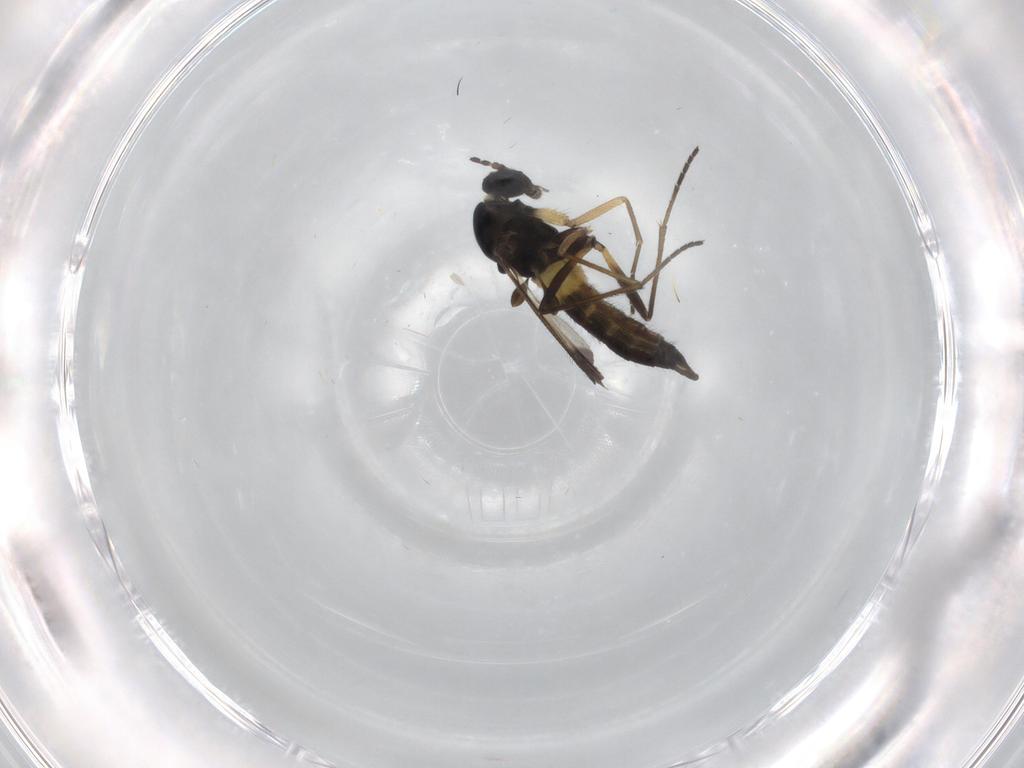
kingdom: Animalia
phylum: Arthropoda
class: Insecta
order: Diptera
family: Sciaridae
